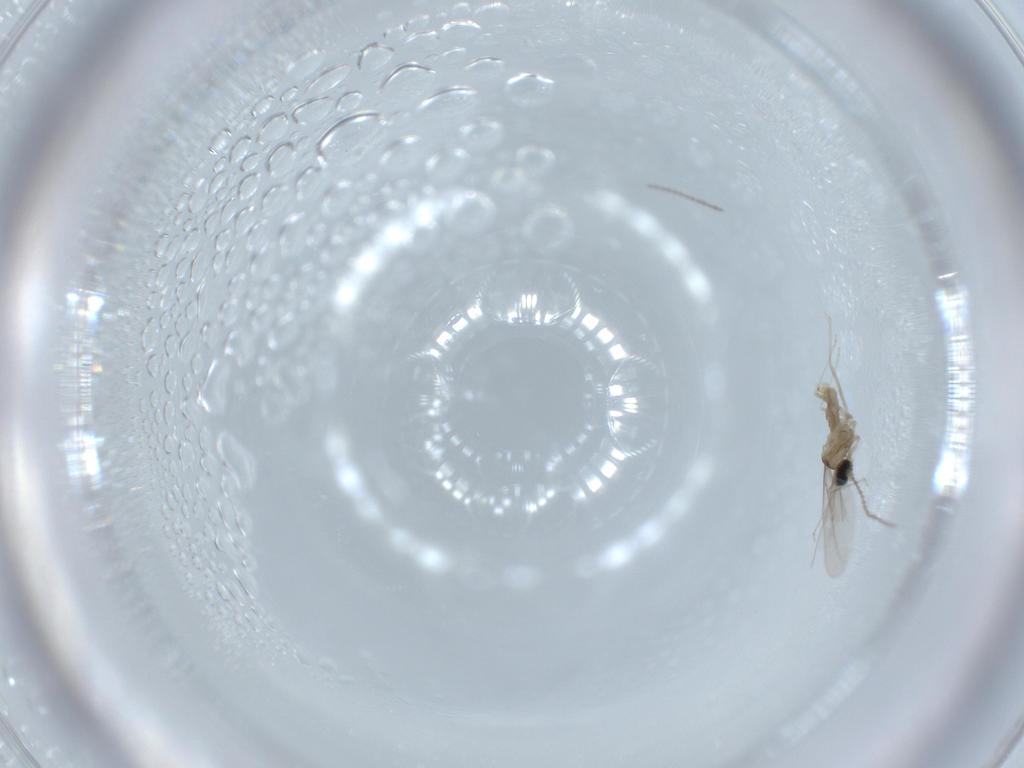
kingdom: Animalia
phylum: Arthropoda
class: Insecta
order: Diptera
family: Cecidomyiidae
